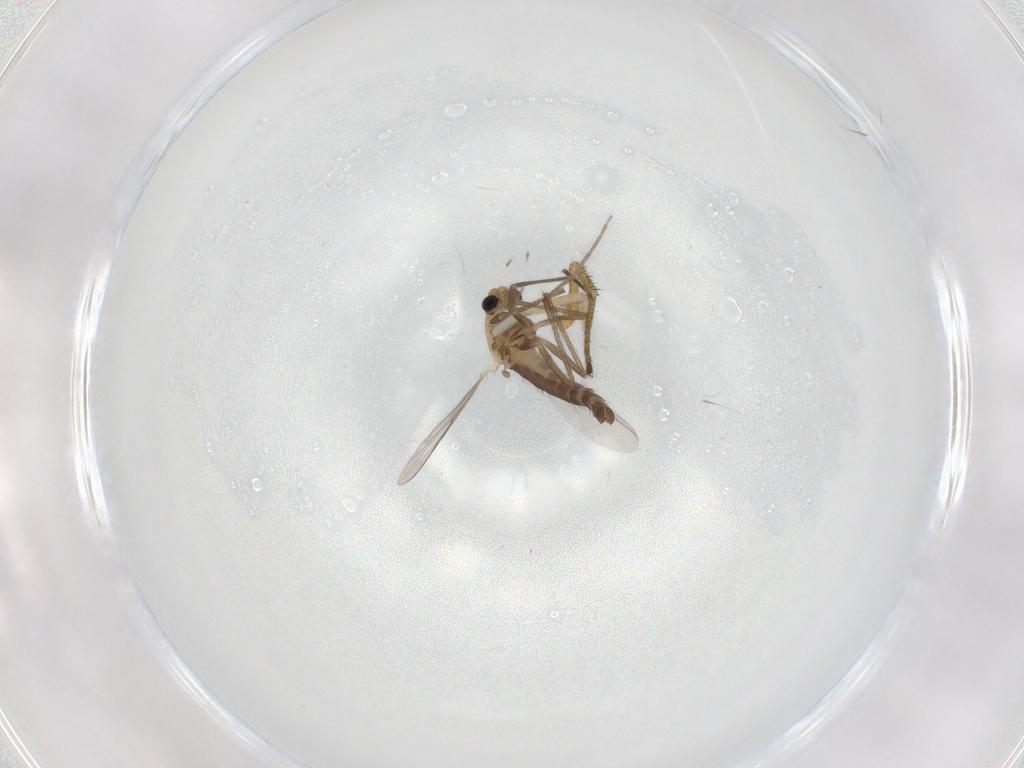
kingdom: Animalia
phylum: Arthropoda
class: Insecta
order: Diptera
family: Chironomidae
